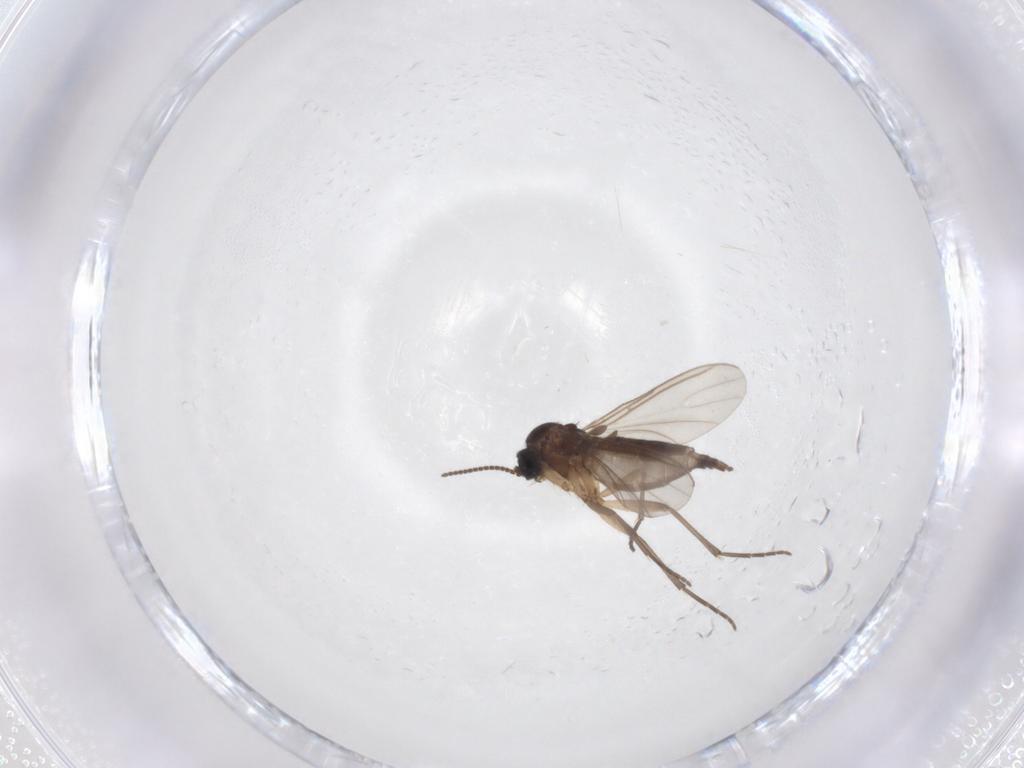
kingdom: Animalia
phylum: Arthropoda
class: Insecta
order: Diptera
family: Sciaridae
